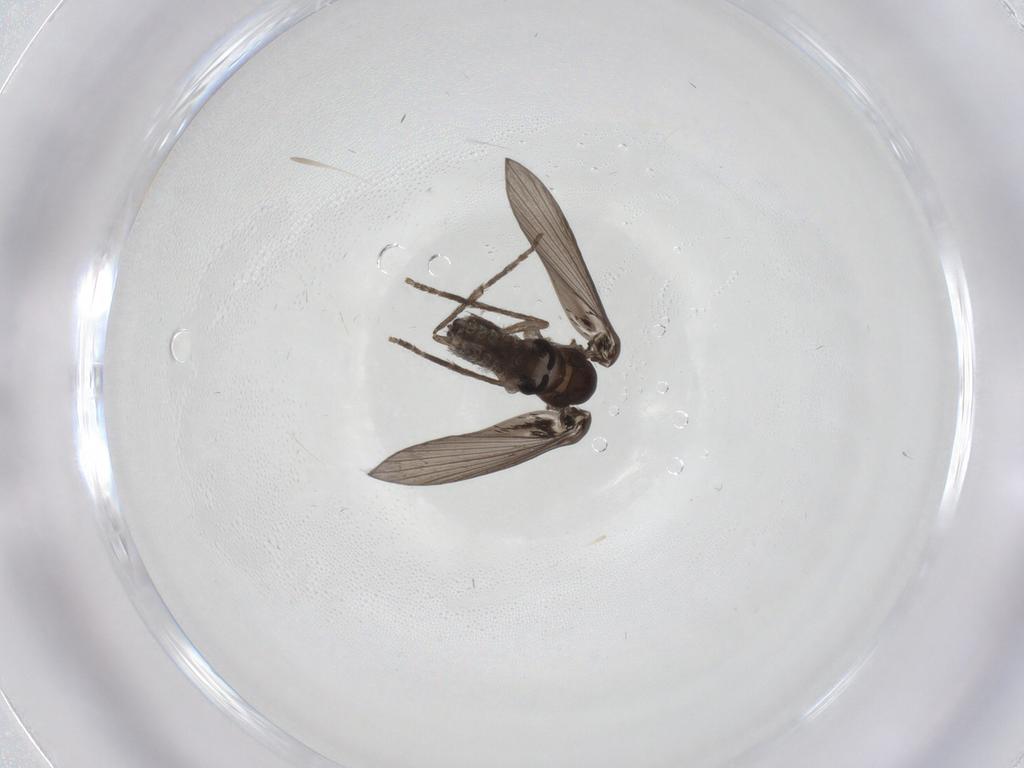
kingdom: Animalia
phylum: Arthropoda
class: Insecta
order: Diptera
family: Psychodidae
